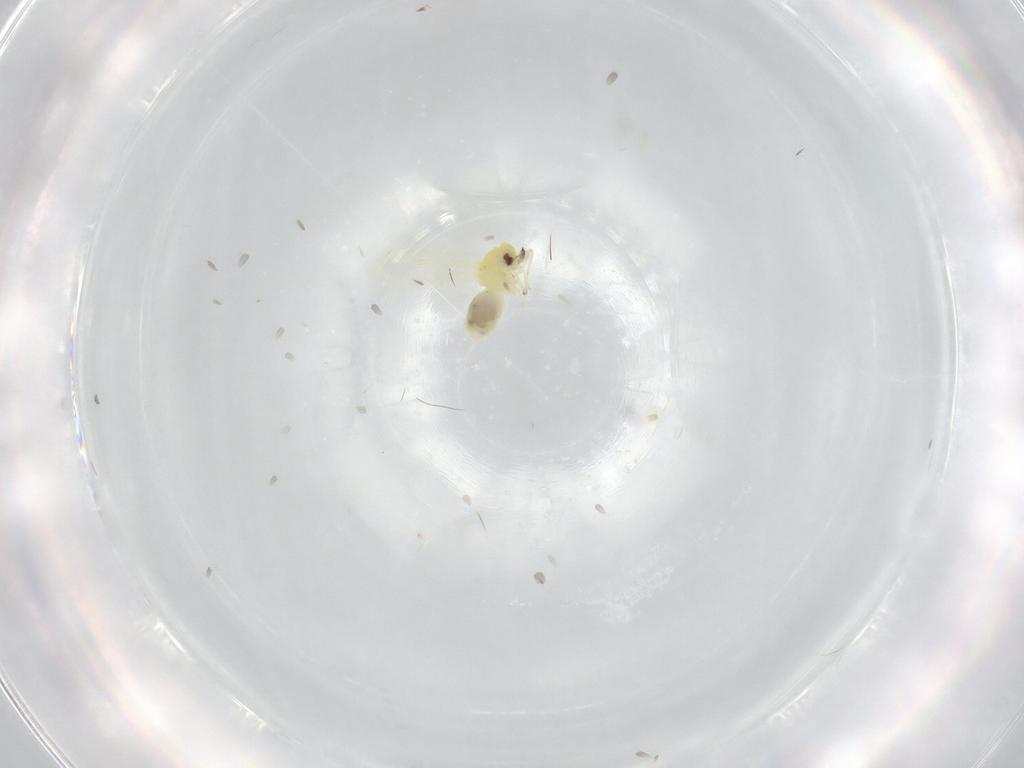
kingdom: Animalia
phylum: Arthropoda
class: Insecta
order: Hemiptera
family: Aleyrodidae
